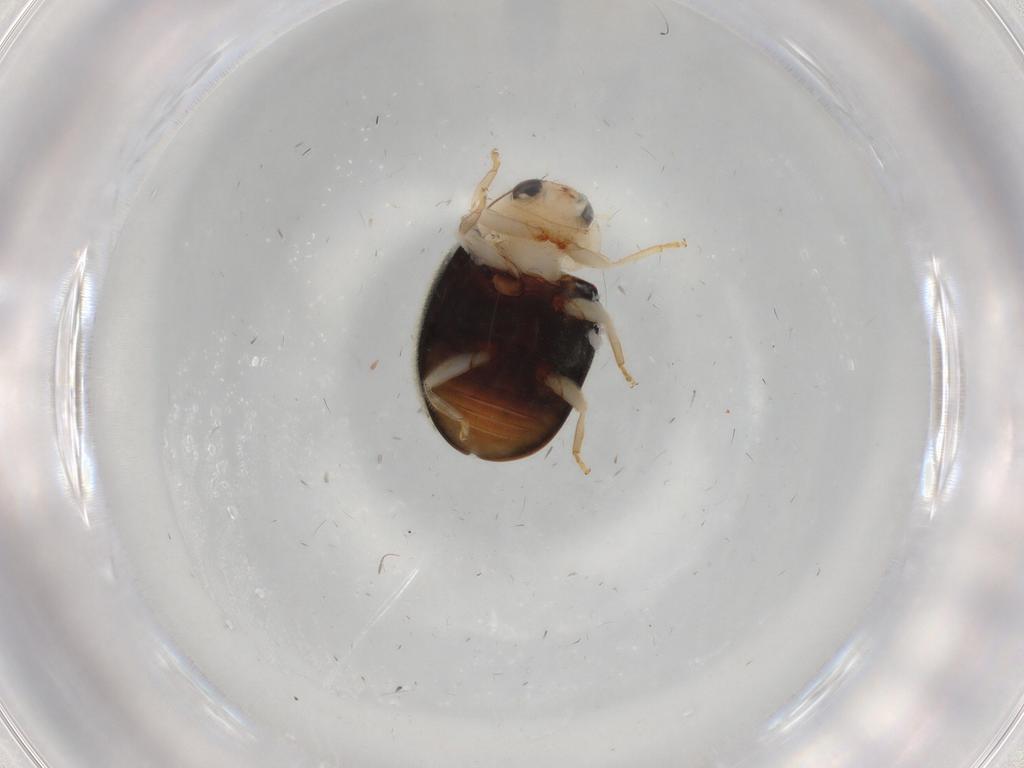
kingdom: Animalia
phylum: Arthropoda
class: Insecta
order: Coleoptera
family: Coccinellidae
